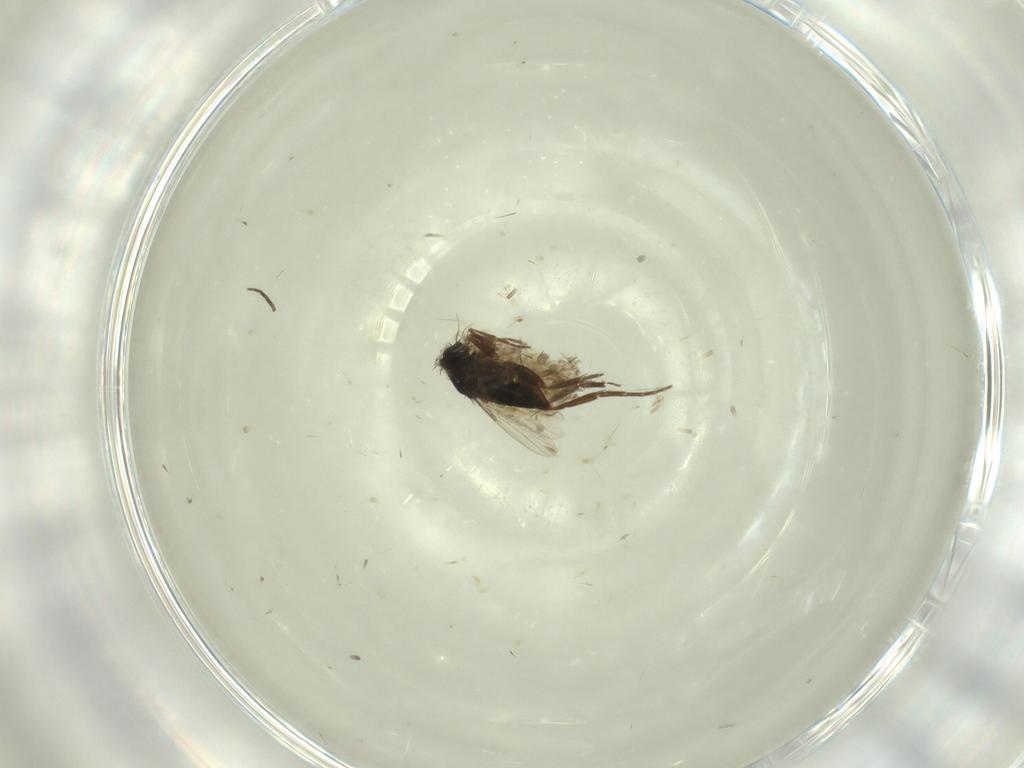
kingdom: Animalia
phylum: Arthropoda
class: Insecta
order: Diptera
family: Phoridae
